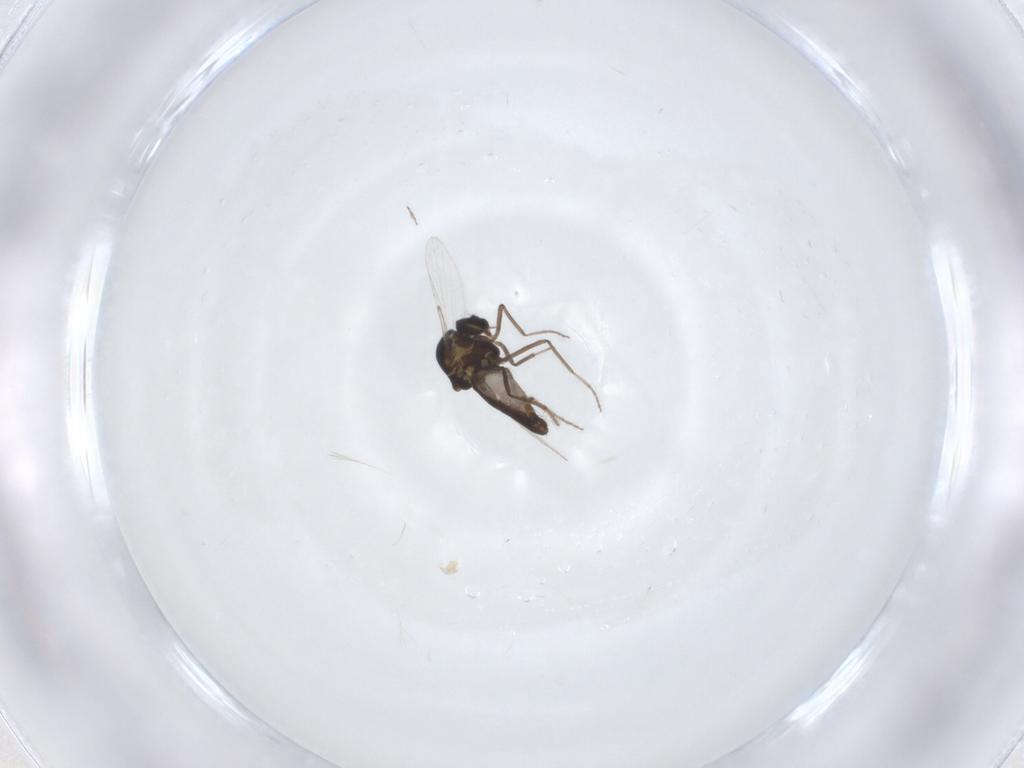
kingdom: Animalia
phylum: Arthropoda
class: Insecta
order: Diptera
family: Ceratopogonidae
